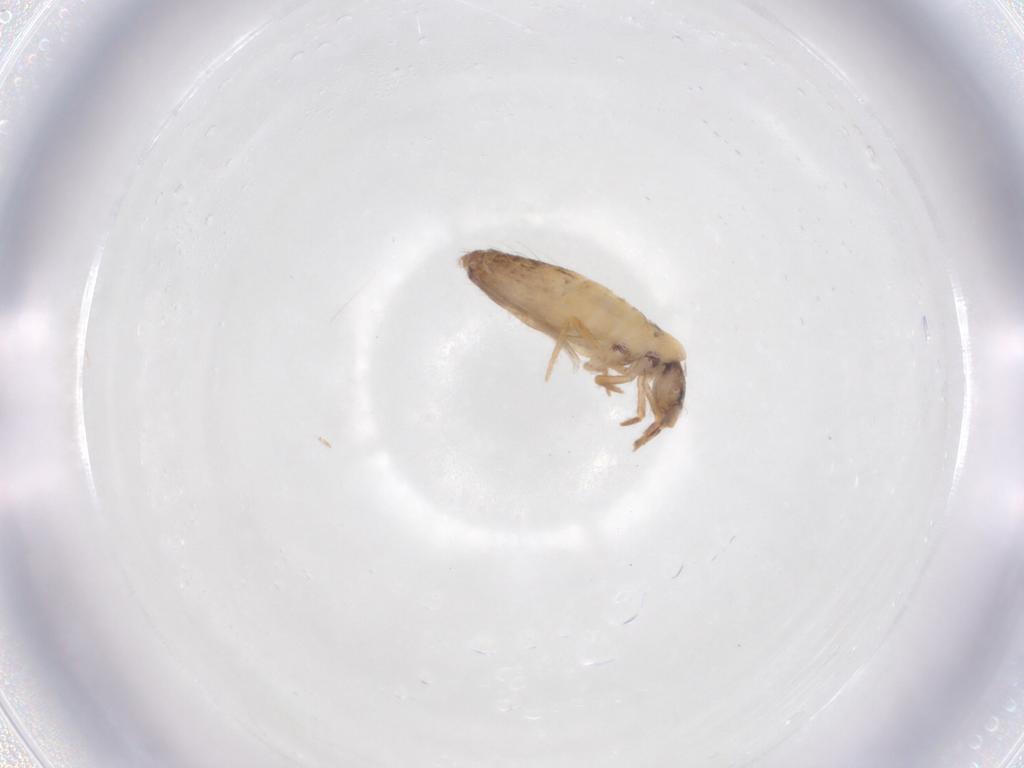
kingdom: Animalia
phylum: Arthropoda
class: Collembola
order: Entomobryomorpha
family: Entomobryidae
